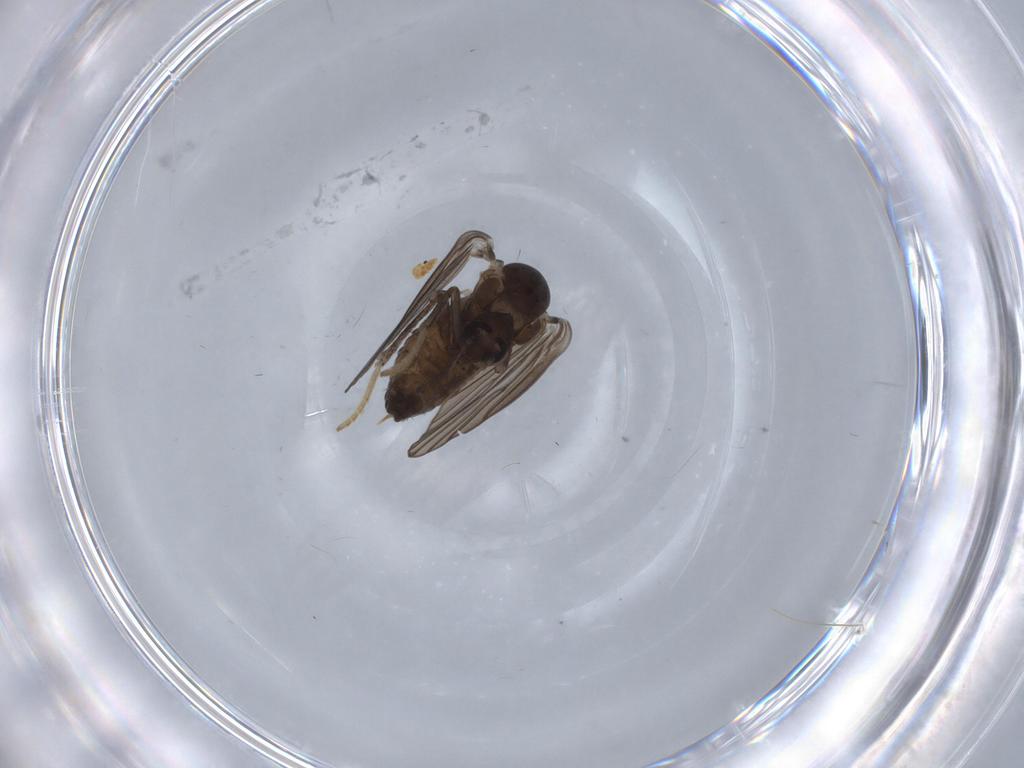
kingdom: Animalia
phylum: Arthropoda
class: Insecta
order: Diptera
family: Psychodidae
